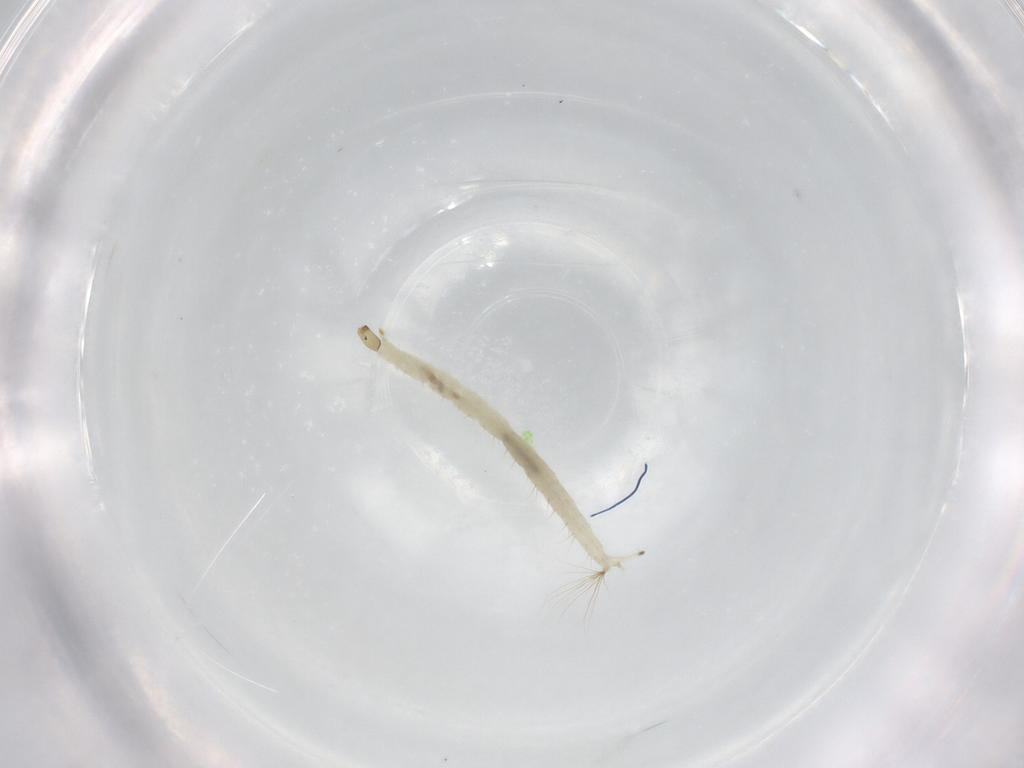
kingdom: Animalia
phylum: Arthropoda
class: Insecta
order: Diptera
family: Chironomidae
